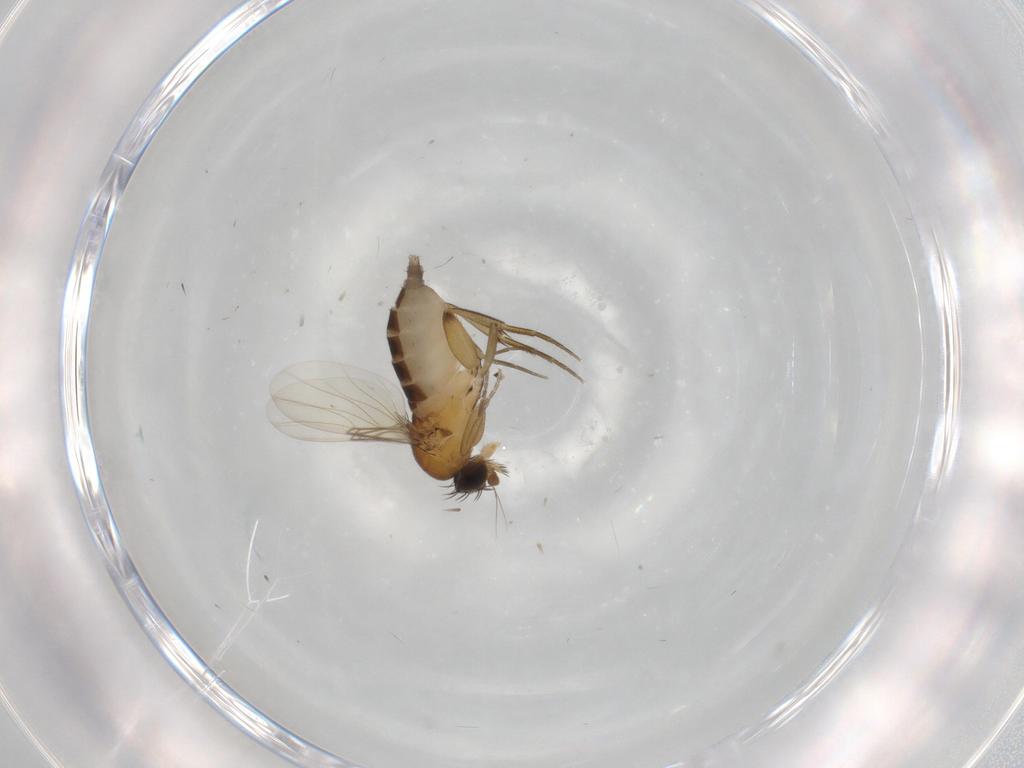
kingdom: Animalia
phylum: Arthropoda
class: Insecta
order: Diptera
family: Phoridae
